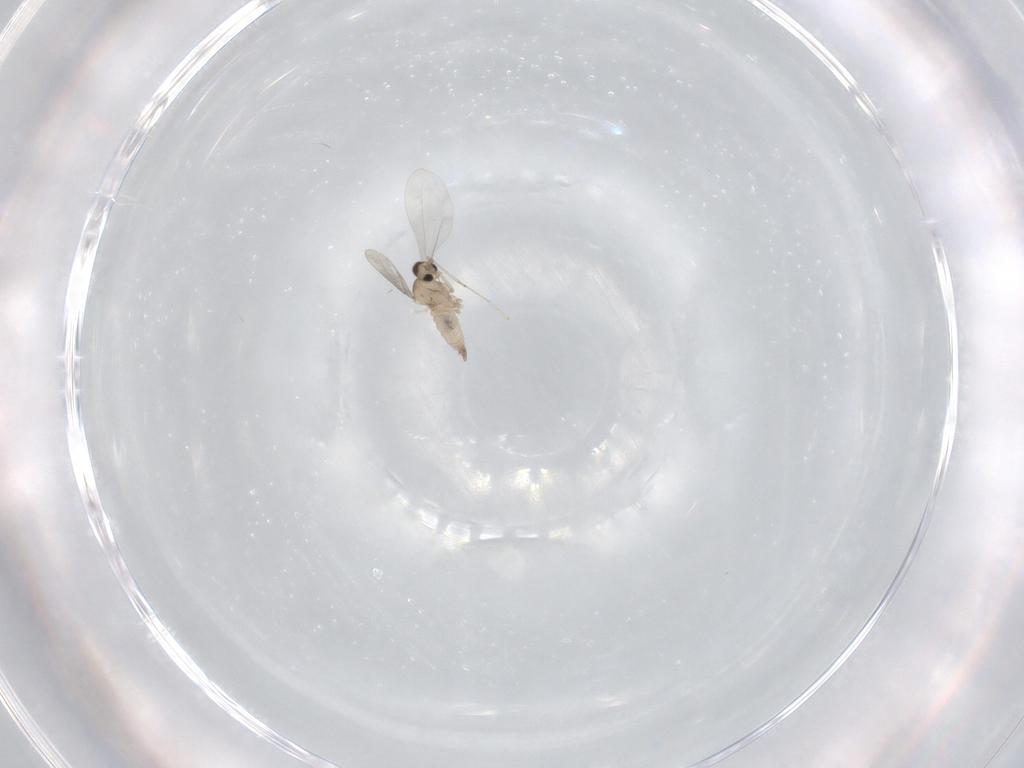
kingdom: Animalia
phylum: Arthropoda
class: Insecta
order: Diptera
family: Cecidomyiidae
